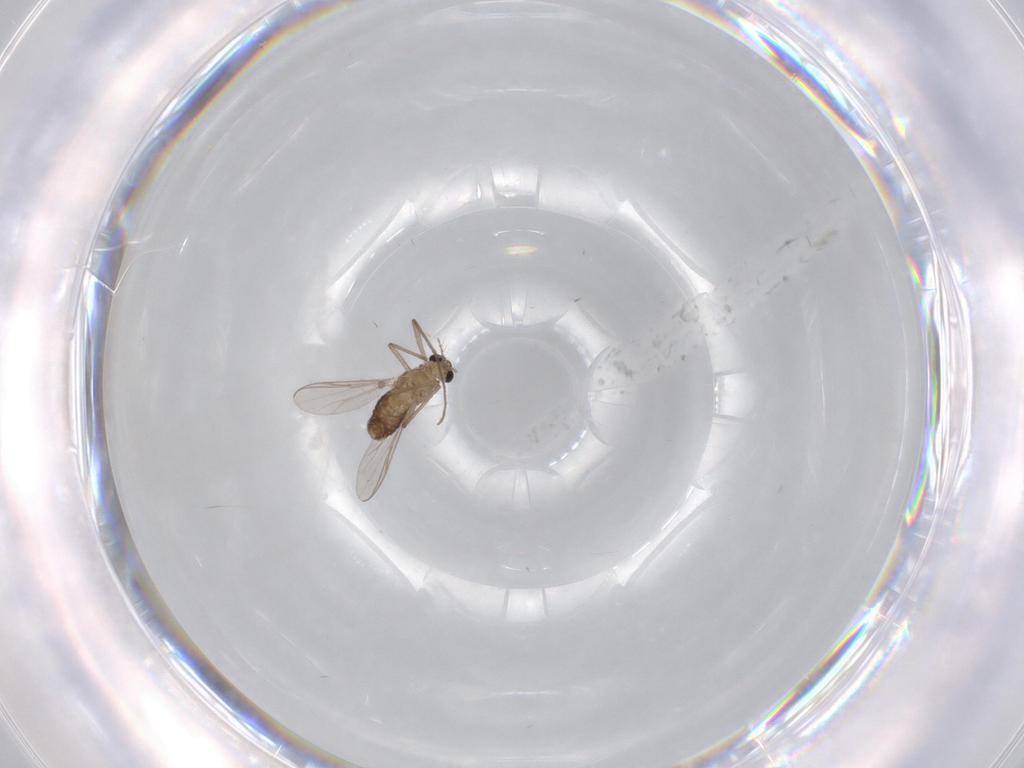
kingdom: Animalia
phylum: Arthropoda
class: Insecta
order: Diptera
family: Chironomidae
